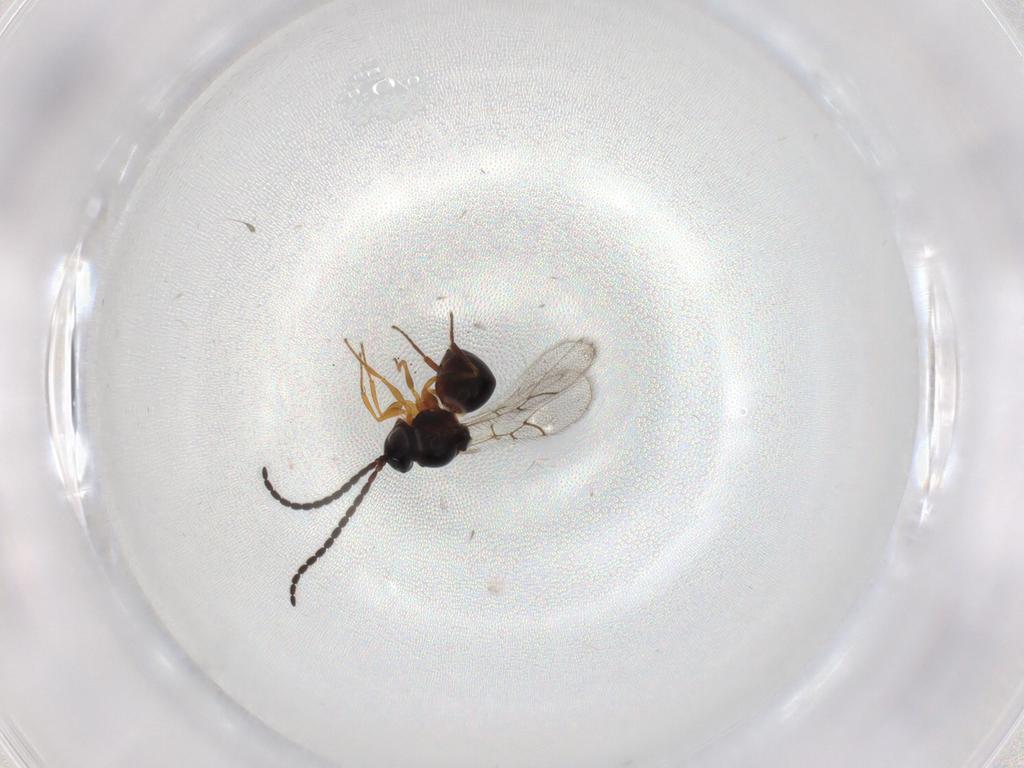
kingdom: Animalia
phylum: Arthropoda
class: Insecta
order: Hymenoptera
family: Figitidae
